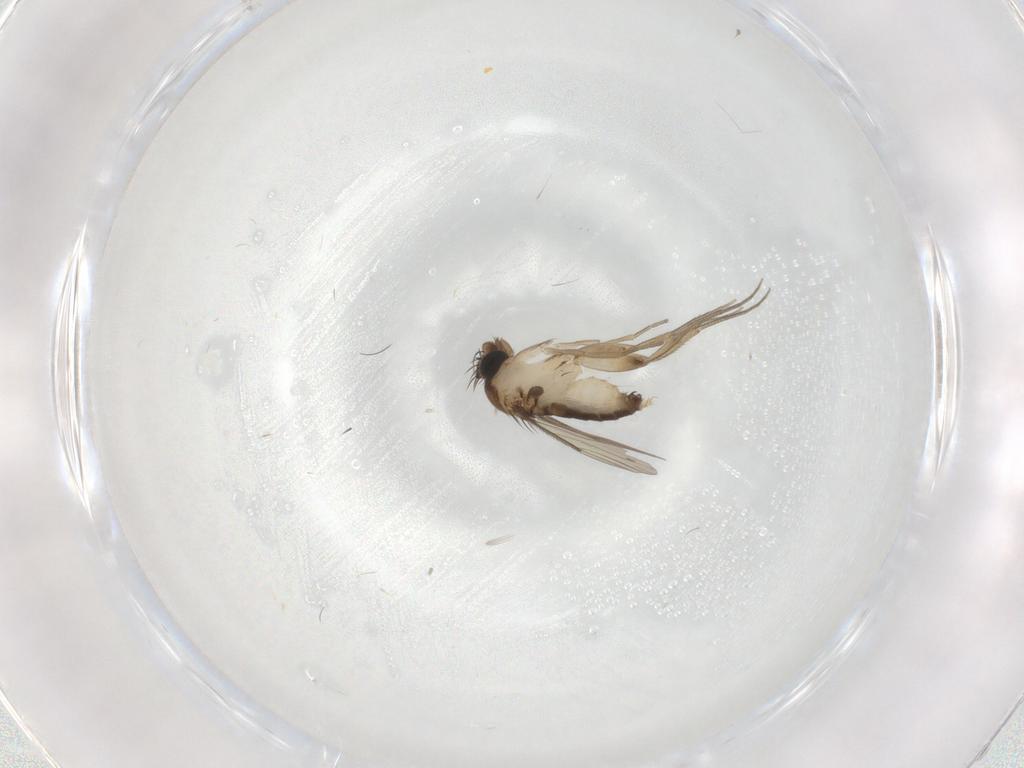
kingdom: Animalia
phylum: Arthropoda
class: Insecta
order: Diptera
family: Phoridae
